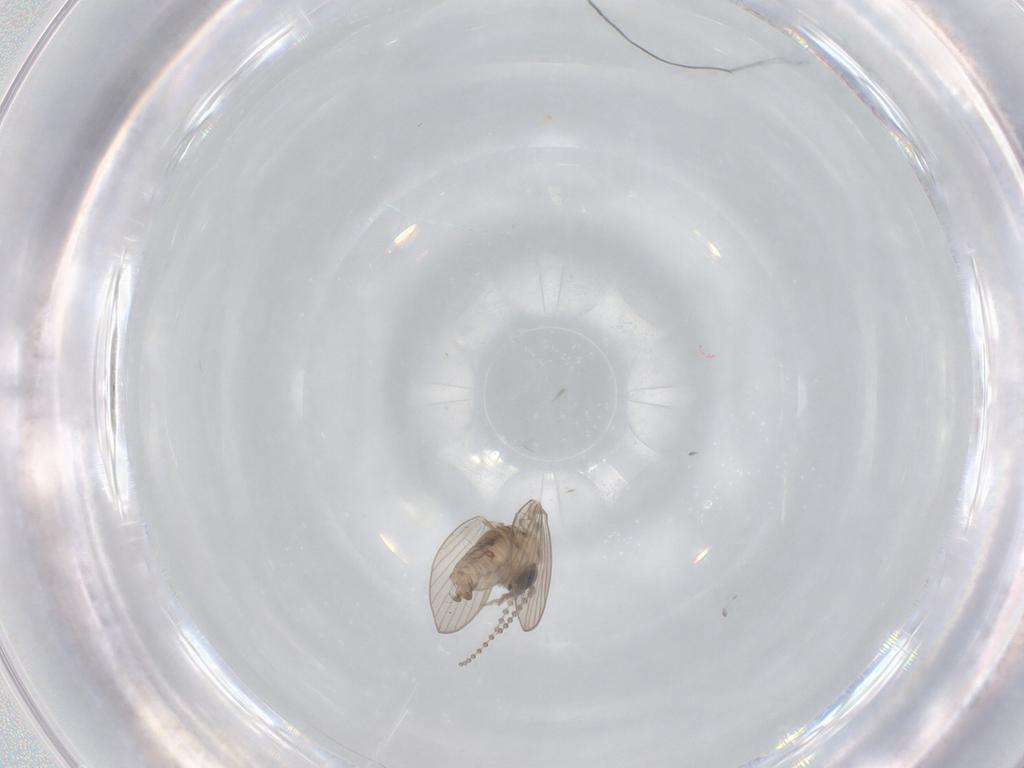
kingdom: Animalia
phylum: Arthropoda
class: Insecta
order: Diptera
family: Psychodidae
